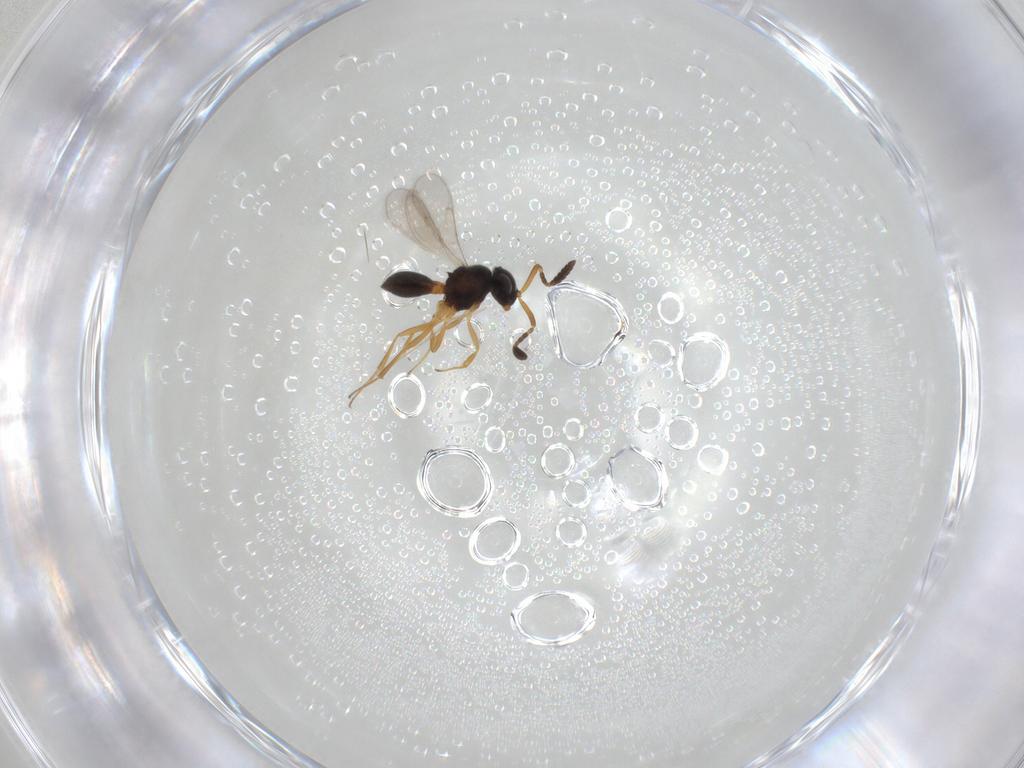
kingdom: Animalia
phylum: Arthropoda
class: Insecta
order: Hymenoptera
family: Scelionidae
